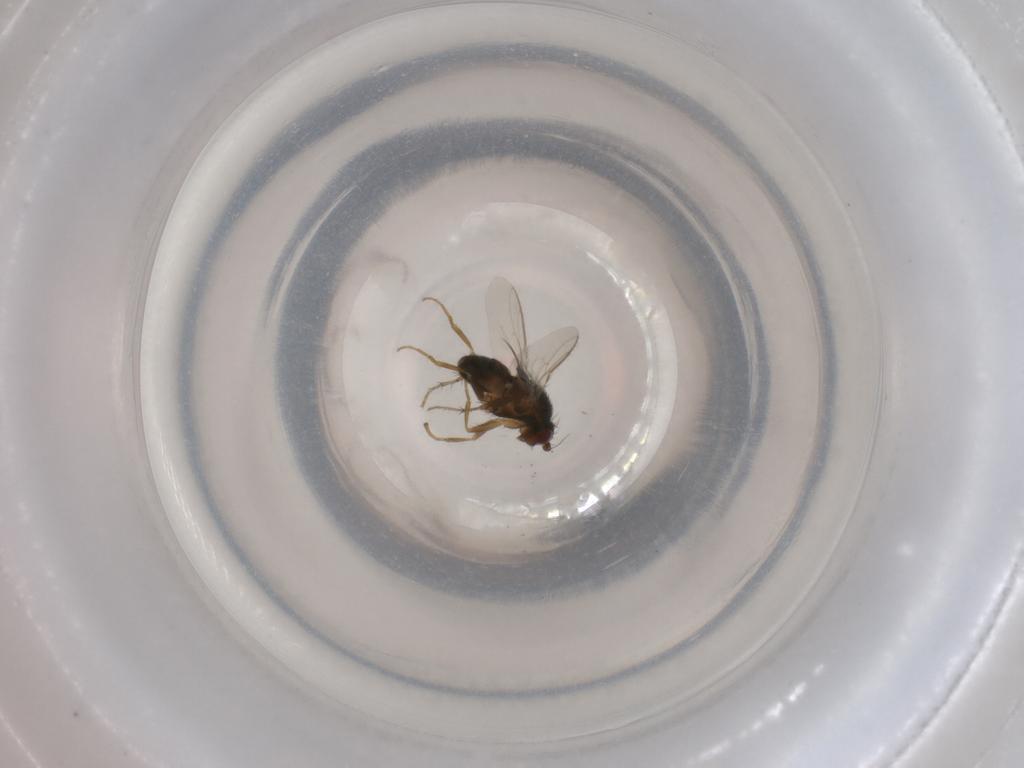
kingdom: Animalia
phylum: Arthropoda
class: Insecta
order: Diptera
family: Sphaeroceridae
